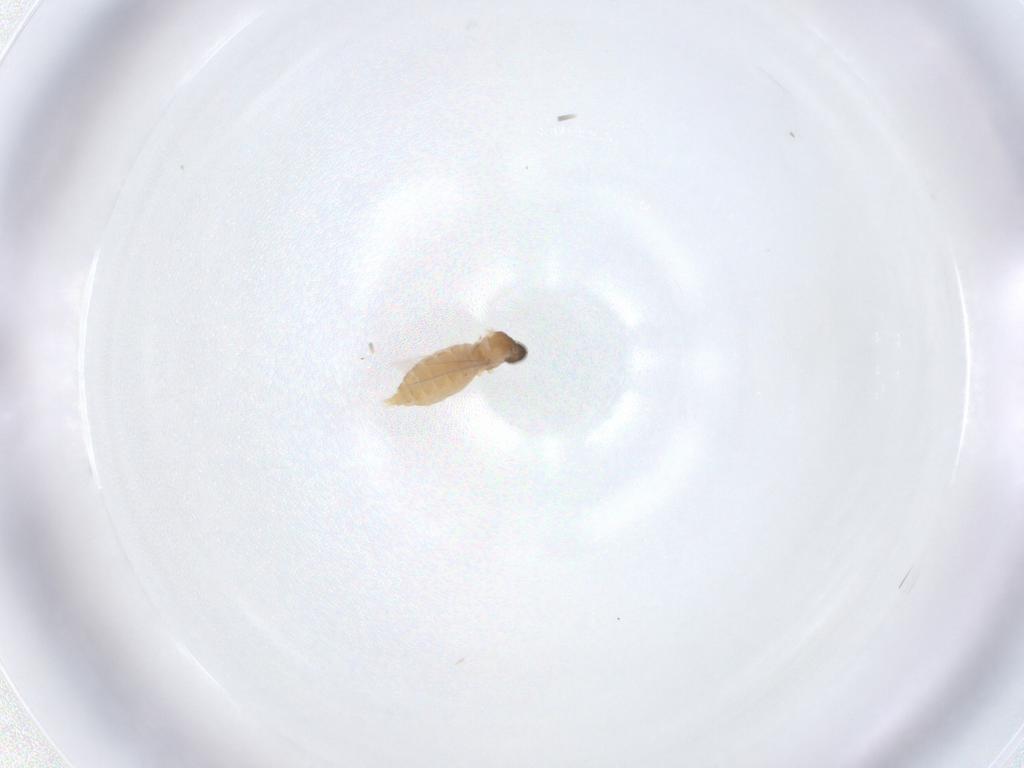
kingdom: Animalia
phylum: Arthropoda
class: Insecta
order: Diptera
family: Cecidomyiidae
